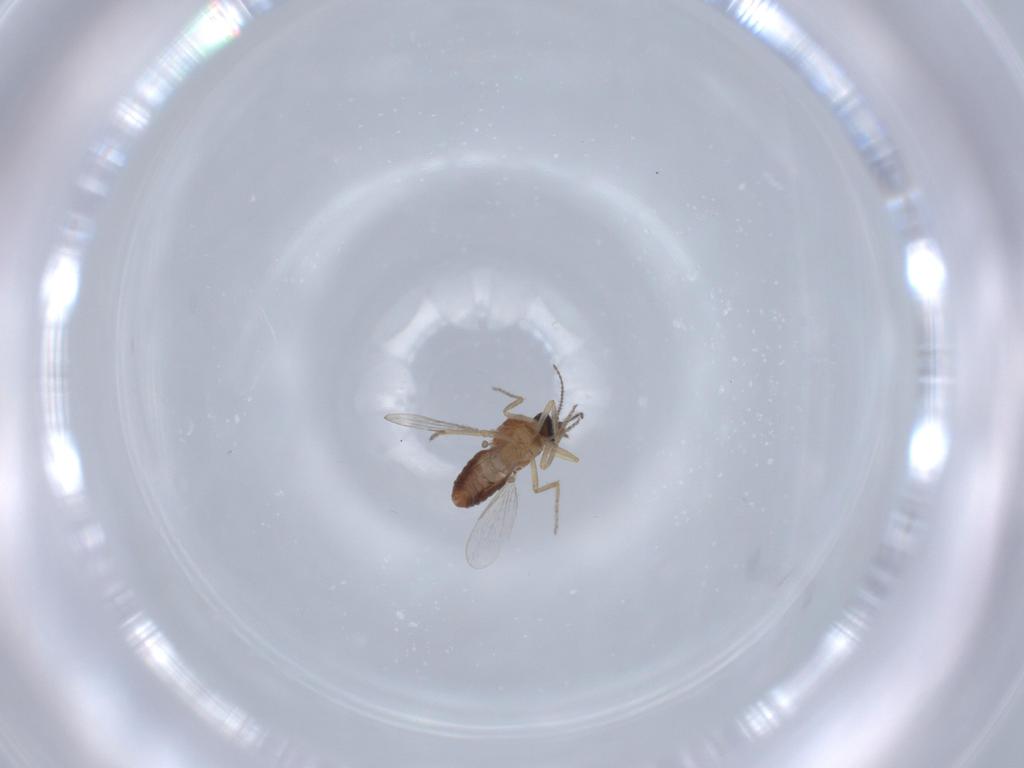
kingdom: Animalia
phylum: Arthropoda
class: Insecta
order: Diptera
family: Ceratopogonidae
